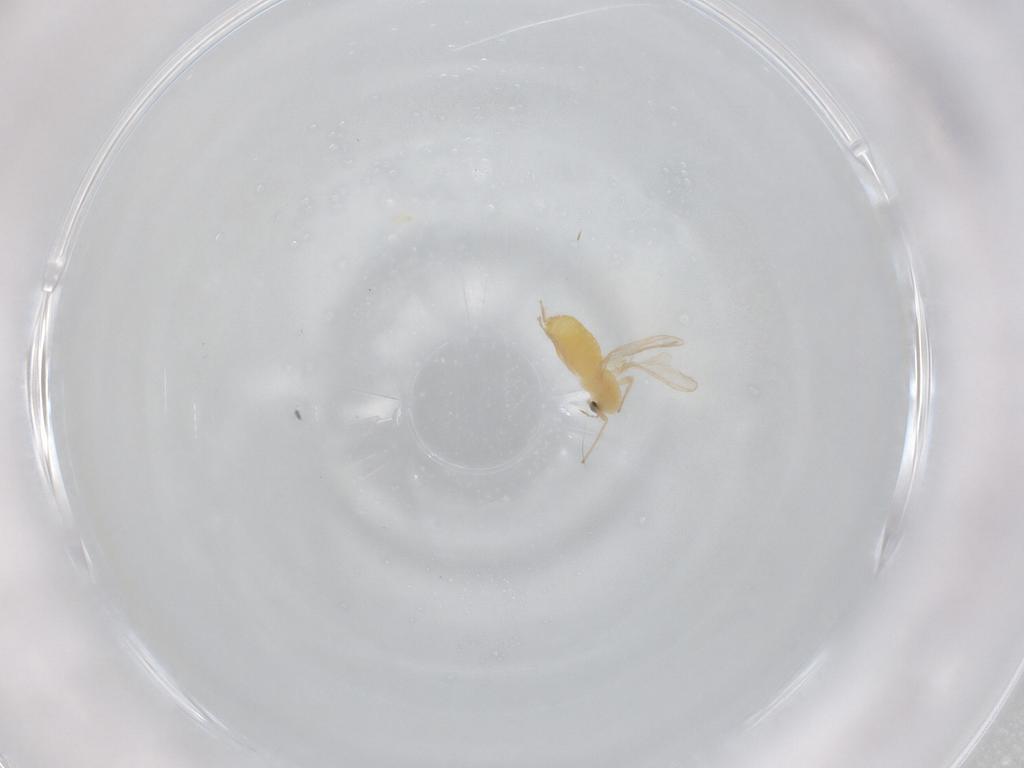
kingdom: Animalia
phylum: Arthropoda
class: Insecta
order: Diptera
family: Chironomidae
